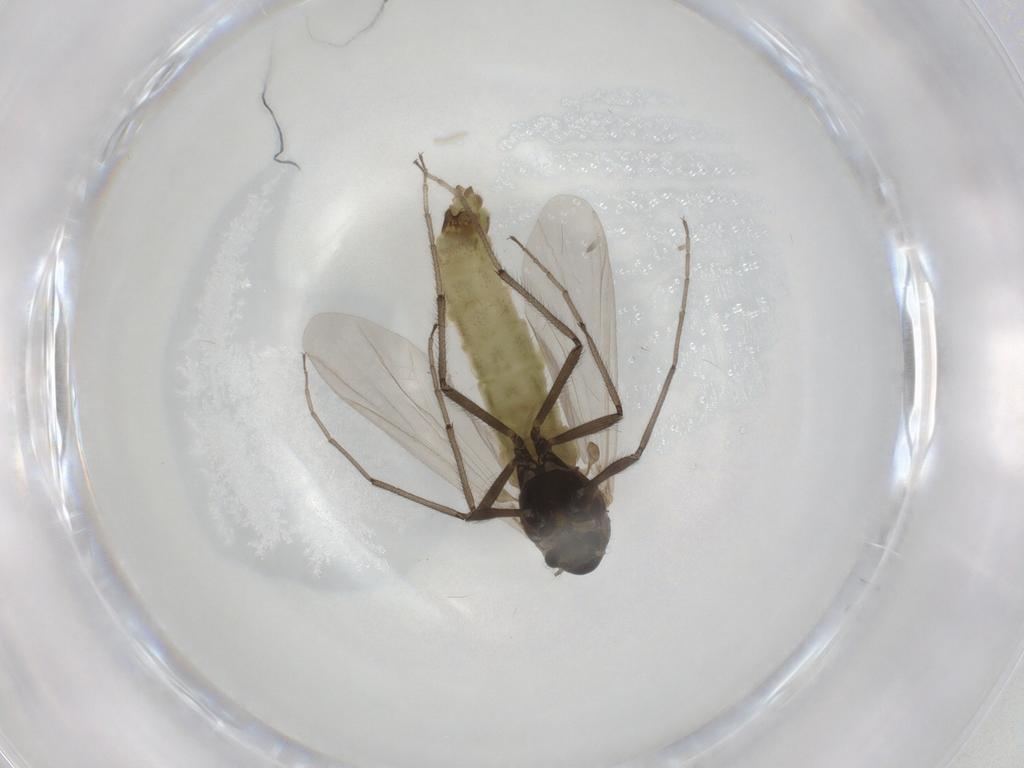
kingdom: Animalia
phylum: Arthropoda
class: Insecta
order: Diptera
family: Chironomidae
